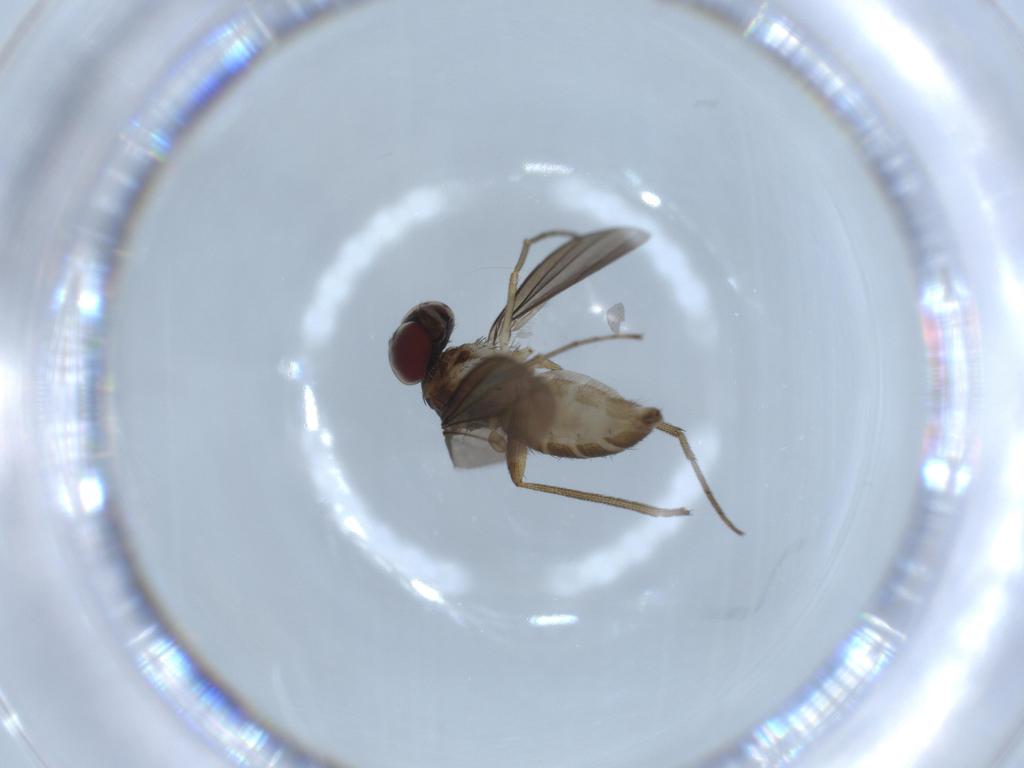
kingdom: Animalia
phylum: Arthropoda
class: Insecta
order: Diptera
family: Dolichopodidae
